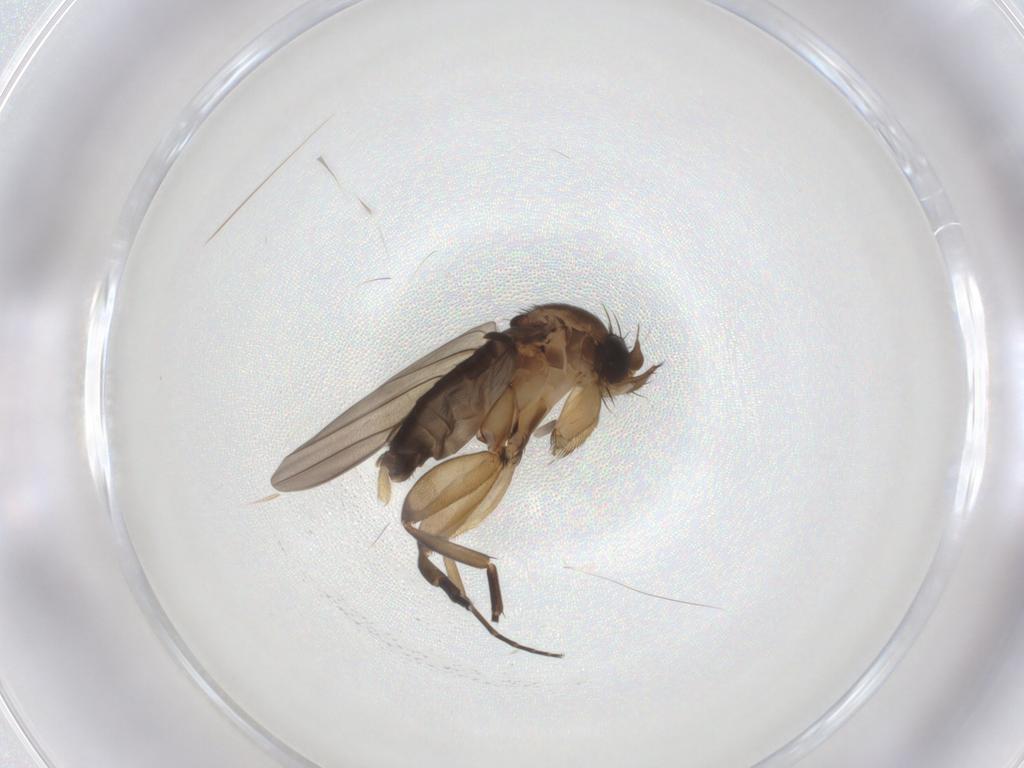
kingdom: Animalia
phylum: Arthropoda
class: Insecta
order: Diptera
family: Phoridae
